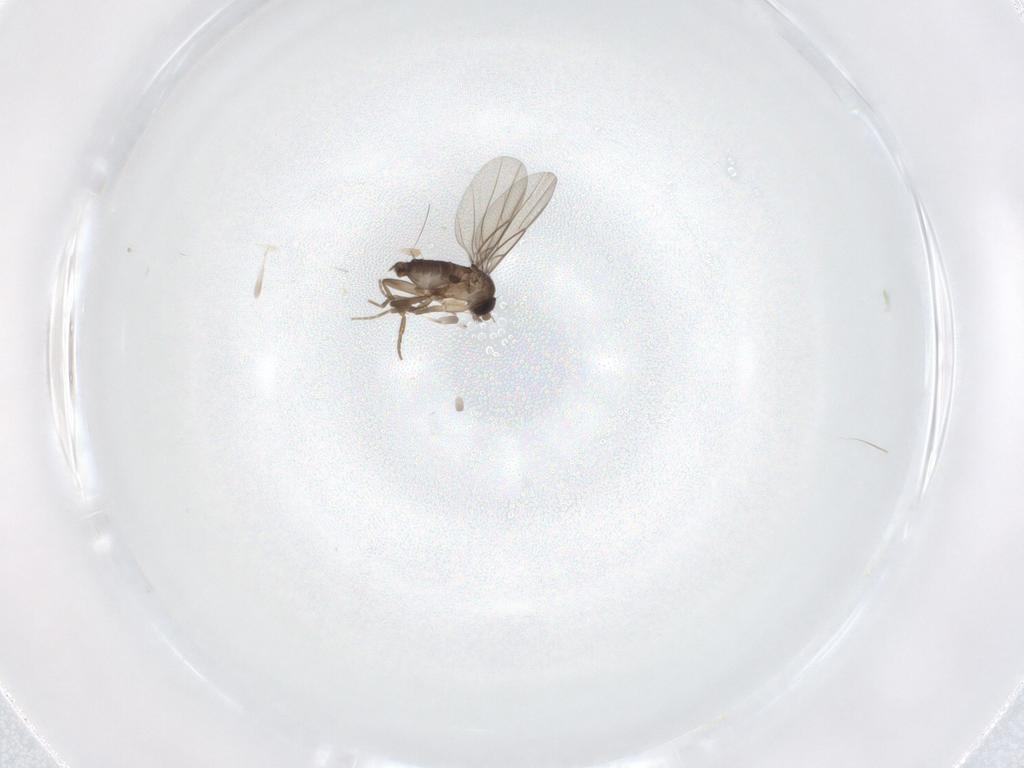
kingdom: Animalia
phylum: Arthropoda
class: Insecta
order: Diptera
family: Phoridae
